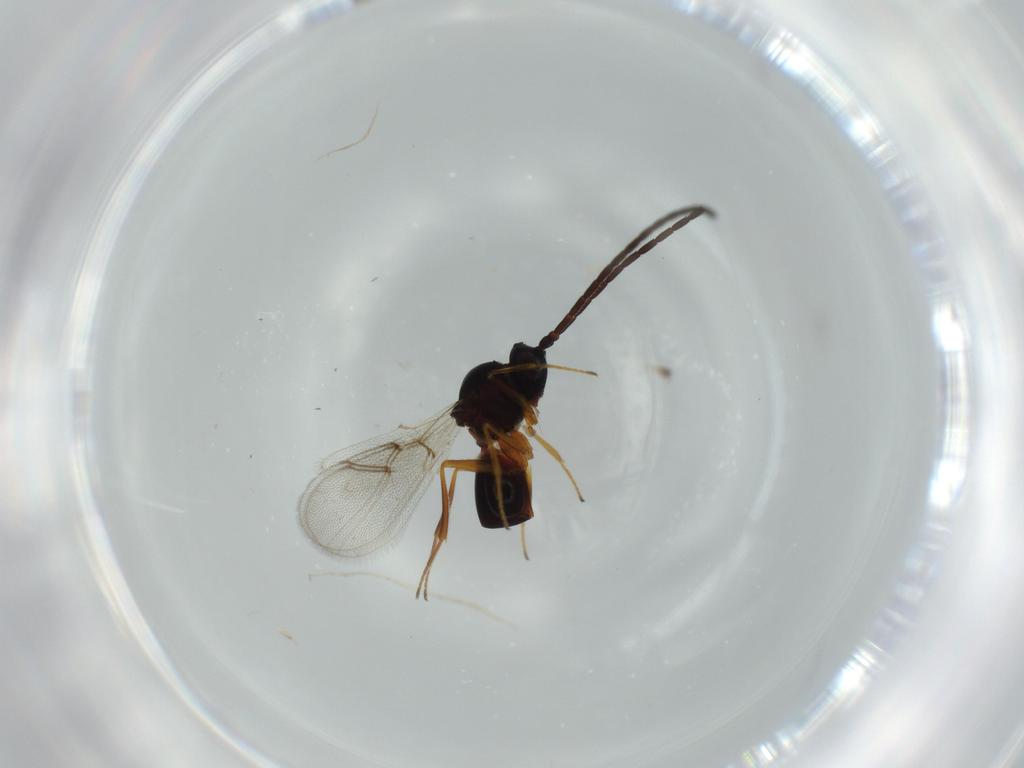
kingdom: Animalia
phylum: Arthropoda
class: Insecta
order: Hymenoptera
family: Figitidae
